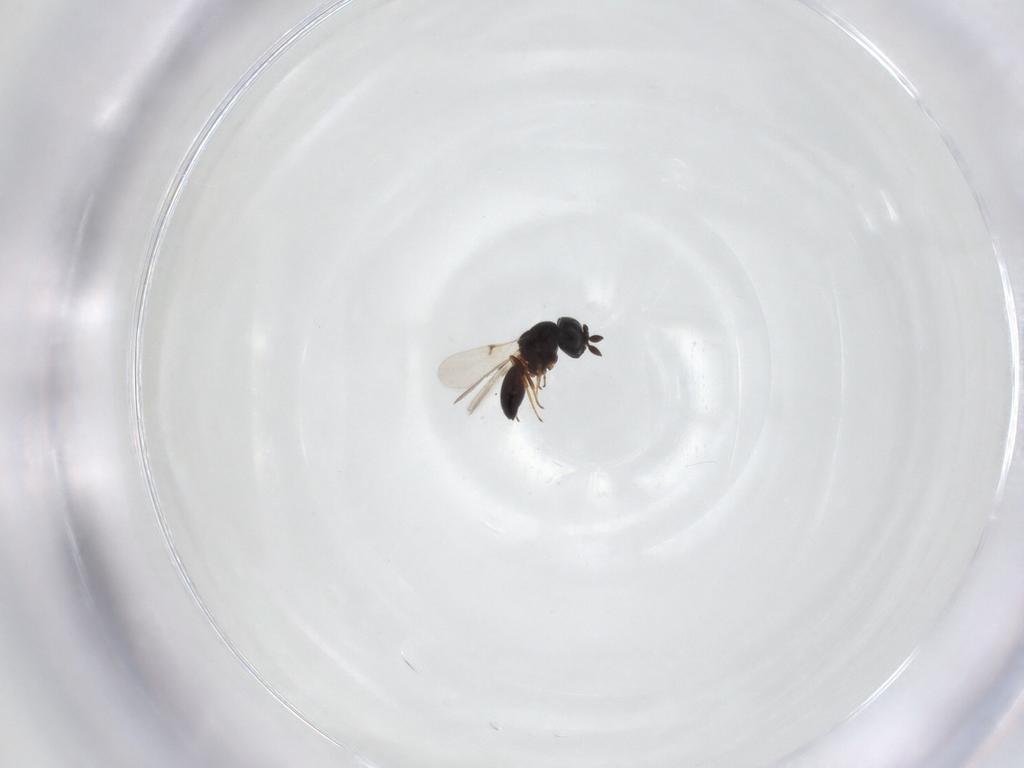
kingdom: Animalia
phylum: Arthropoda
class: Arachnida
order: Araneae
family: Pholcidae
